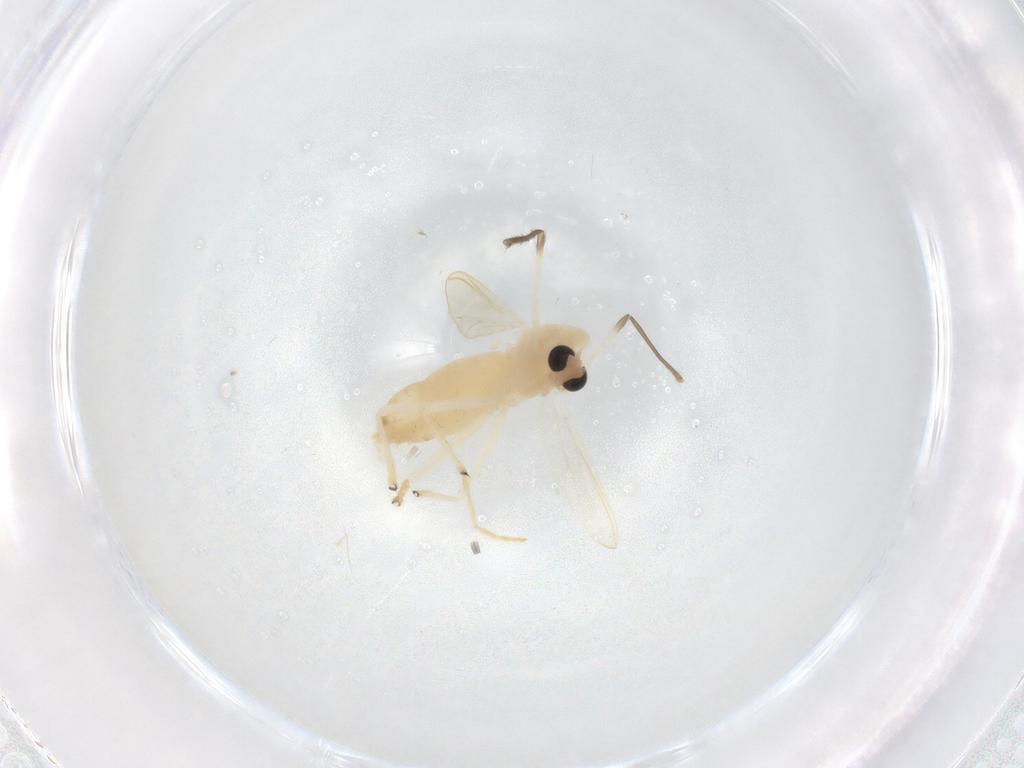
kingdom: Animalia
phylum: Arthropoda
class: Insecta
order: Diptera
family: Chironomidae
